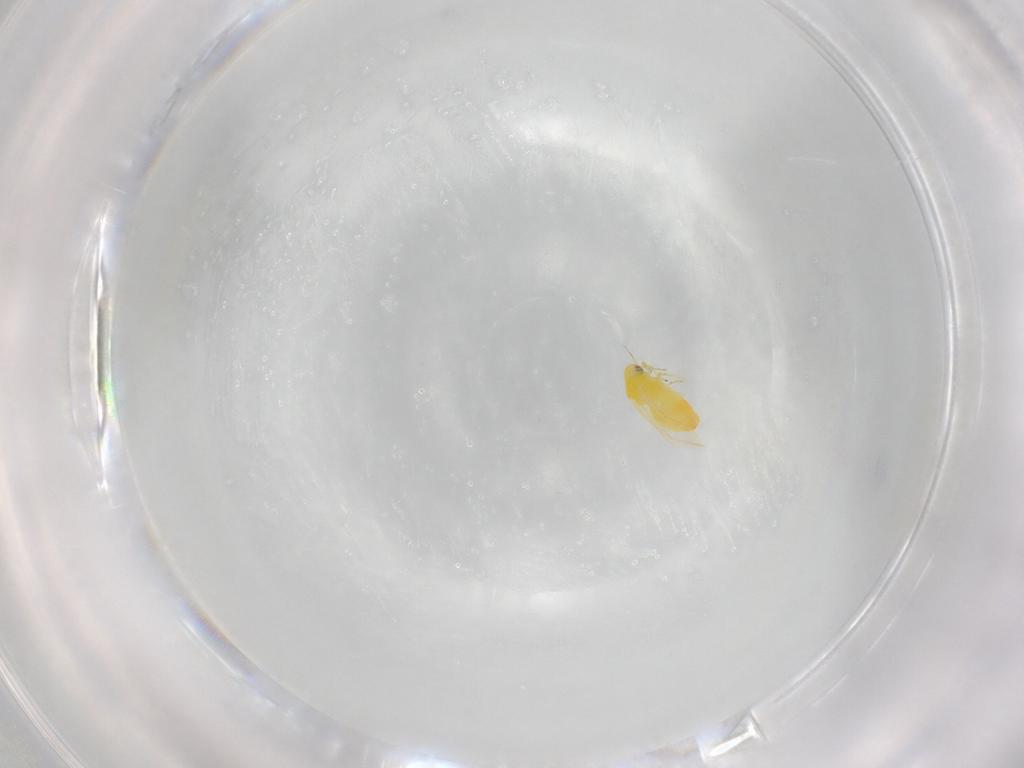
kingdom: Animalia
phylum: Arthropoda
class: Insecta
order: Hemiptera
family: Aleyrodidae
